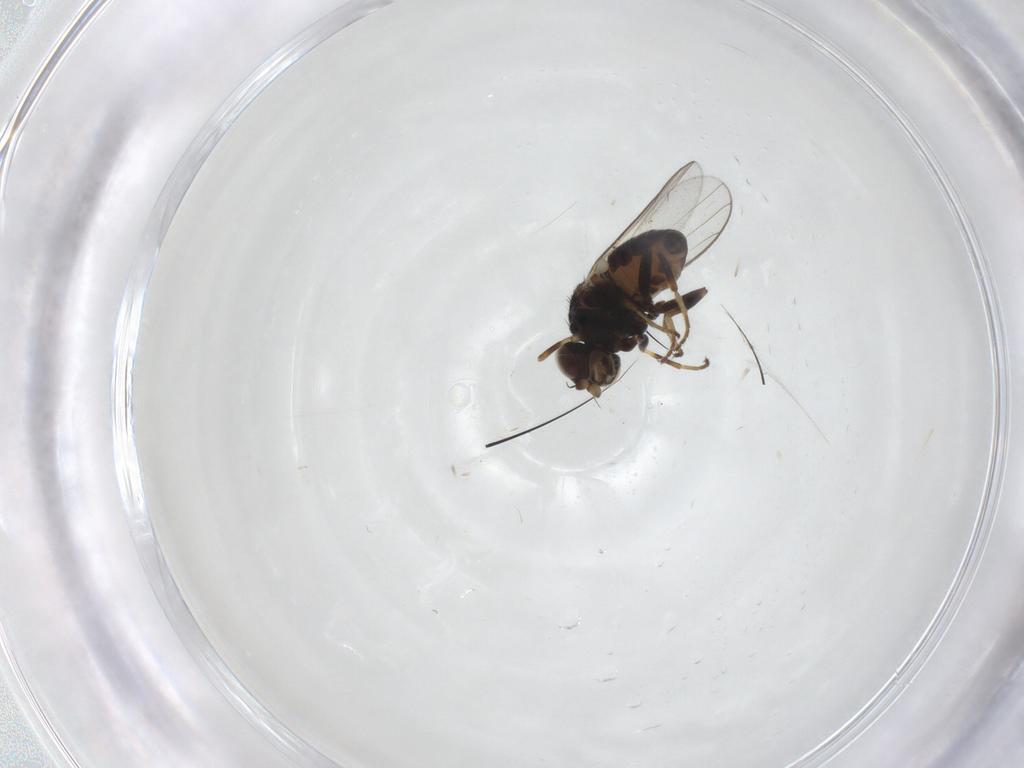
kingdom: Animalia
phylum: Arthropoda
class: Insecta
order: Diptera
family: Chloropidae
